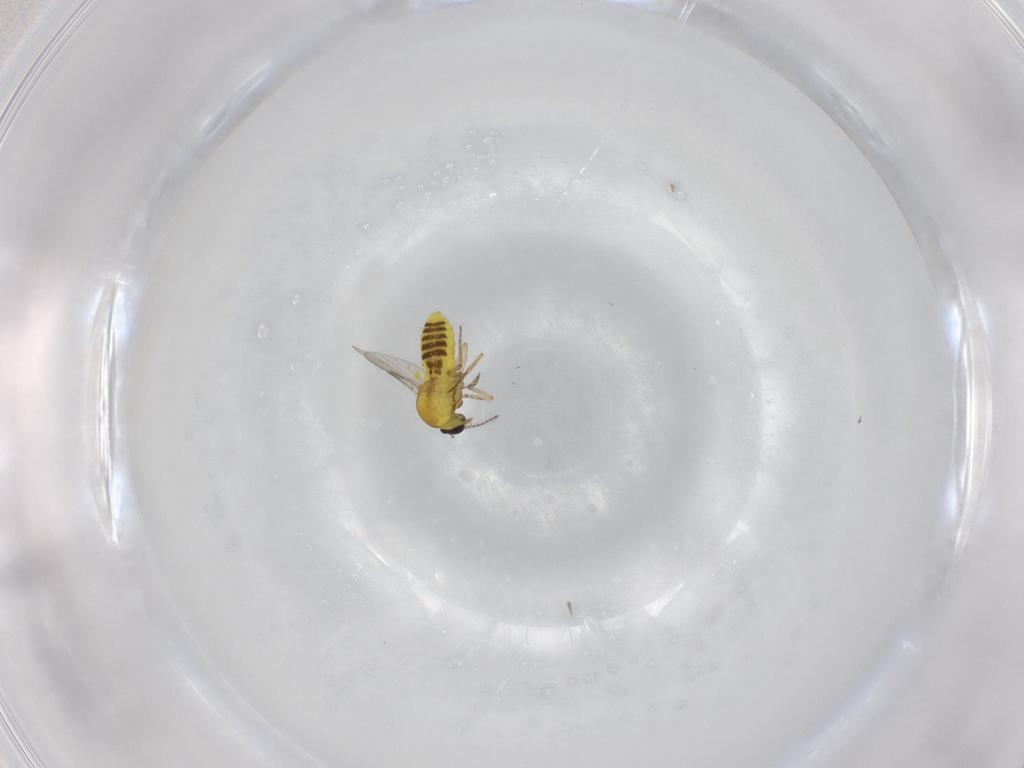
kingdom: Animalia
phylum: Arthropoda
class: Insecta
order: Diptera
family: Ceratopogonidae
